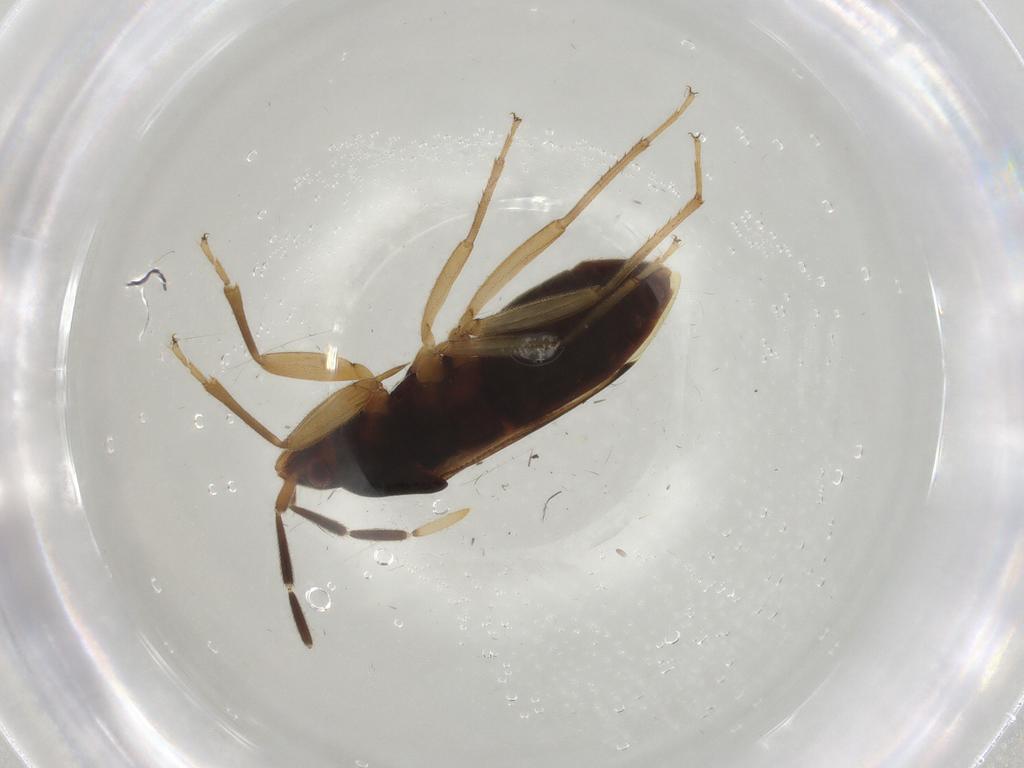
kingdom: Animalia
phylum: Arthropoda
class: Insecta
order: Hemiptera
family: Rhyparochromidae
